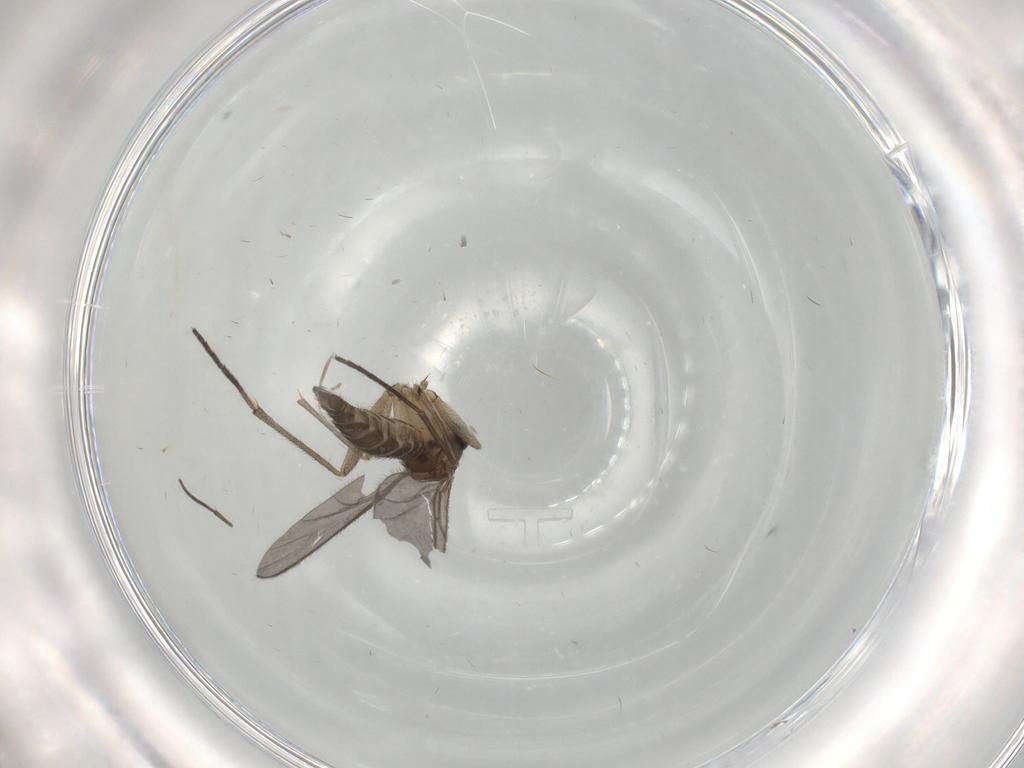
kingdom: Animalia
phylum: Arthropoda
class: Insecta
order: Diptera
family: Sciaridae
